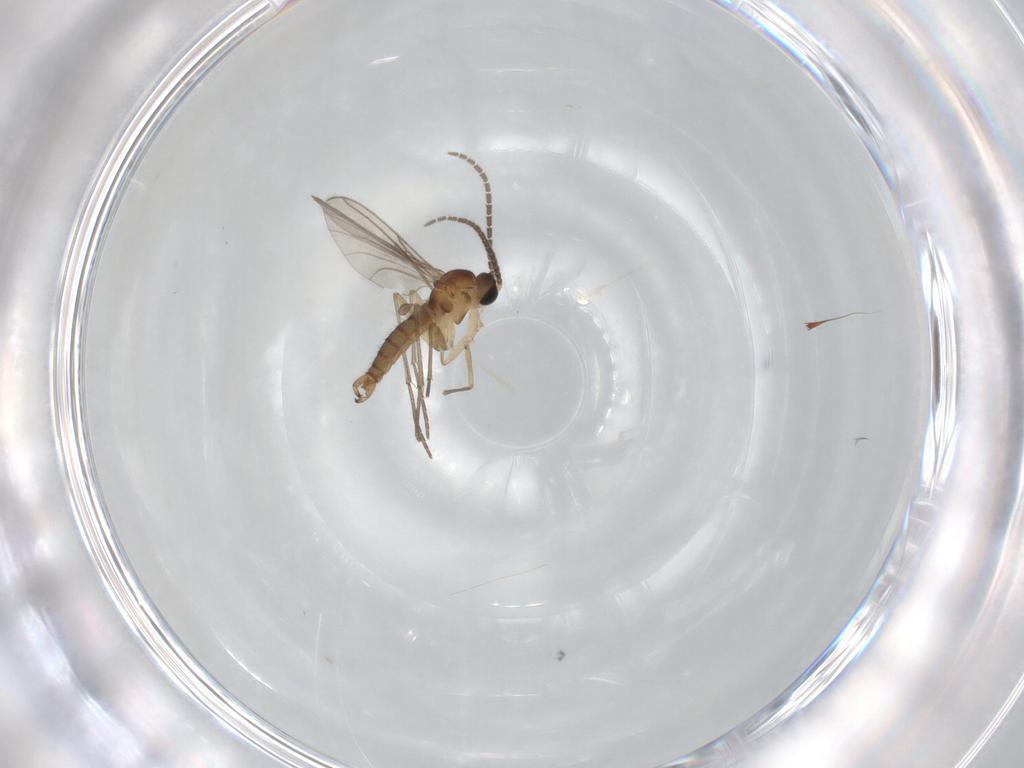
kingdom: Animalia
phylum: Arthropoda
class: Insecta
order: Diptera
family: Sciaridae
